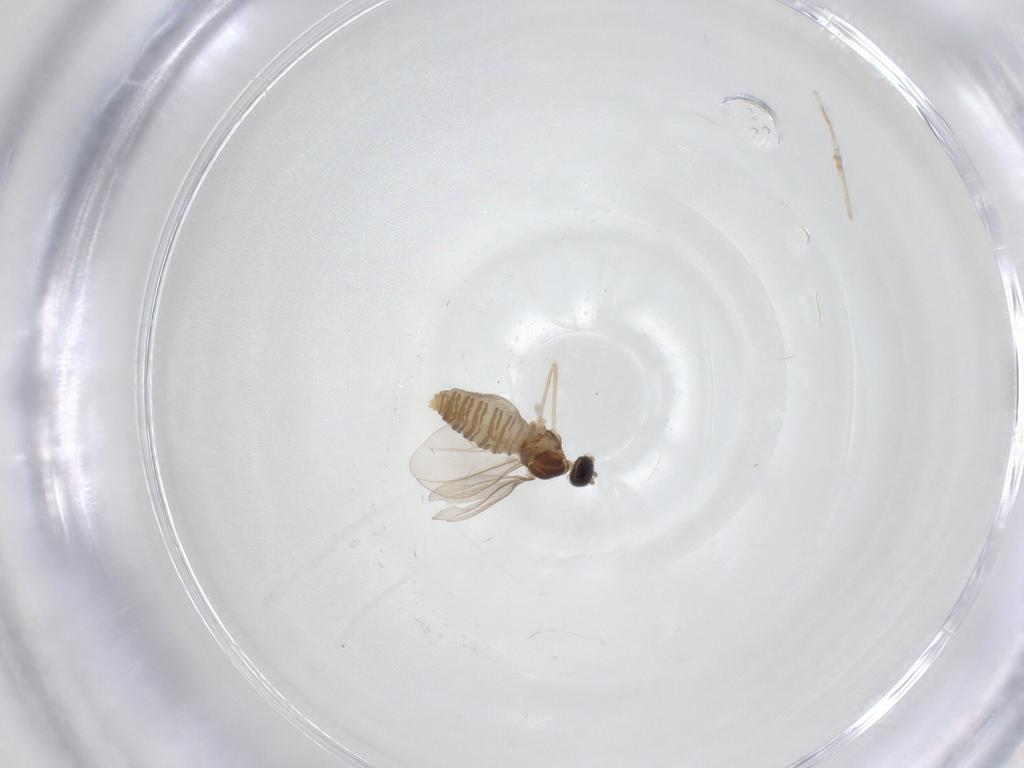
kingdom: Animalia
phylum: Arthropoda
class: Insecta
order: Diptera
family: Cecidomyiidae
